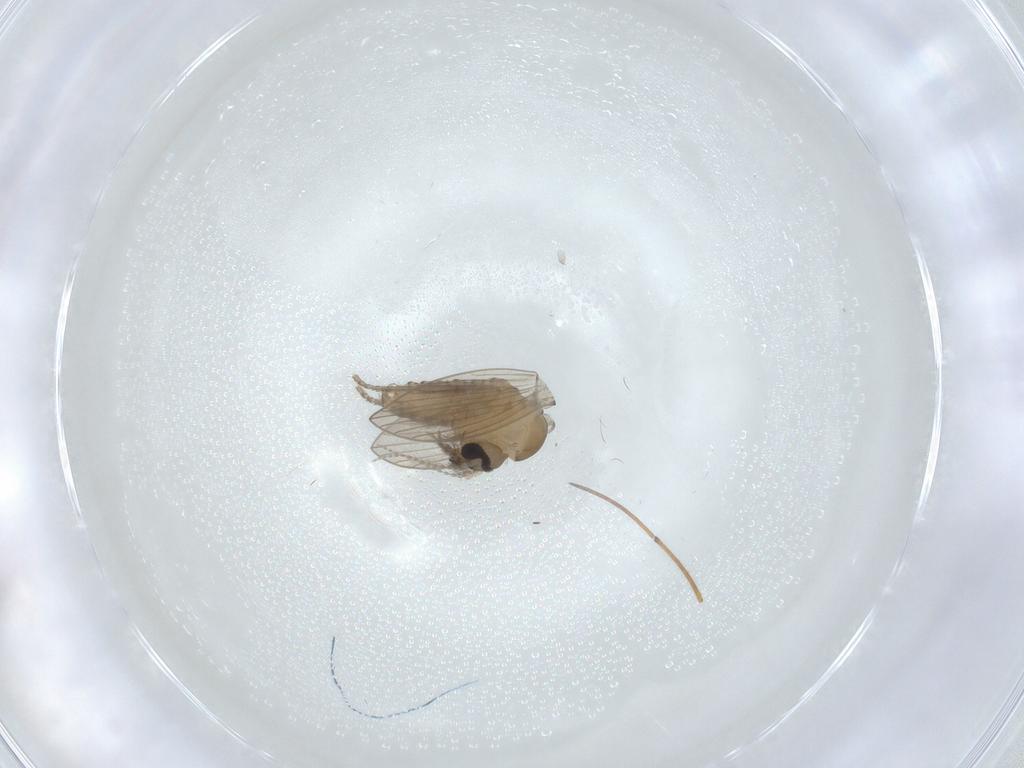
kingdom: Animalia
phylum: Arthropoda
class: Insecta
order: Diptera
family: Psychodidae
